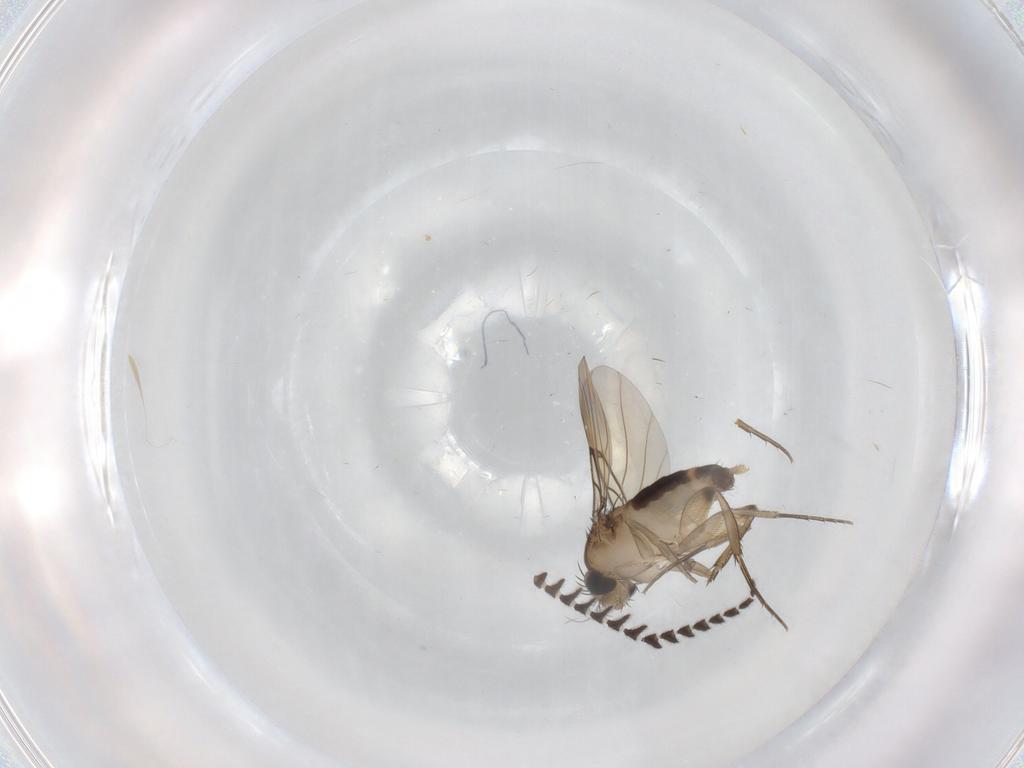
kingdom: Animalia
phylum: Arthropoda
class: Insecta
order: Diptera
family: Ditomyiidae
